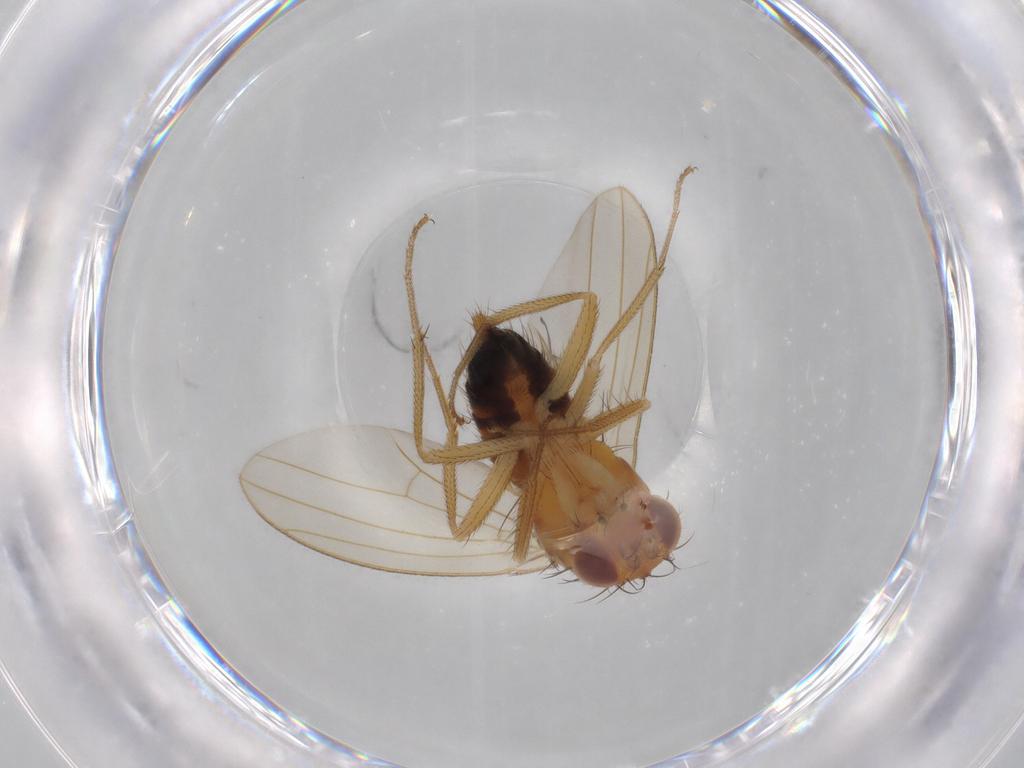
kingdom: Animalia
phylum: Arthropoda
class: Insecta
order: Diptera
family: Drosophilidae
